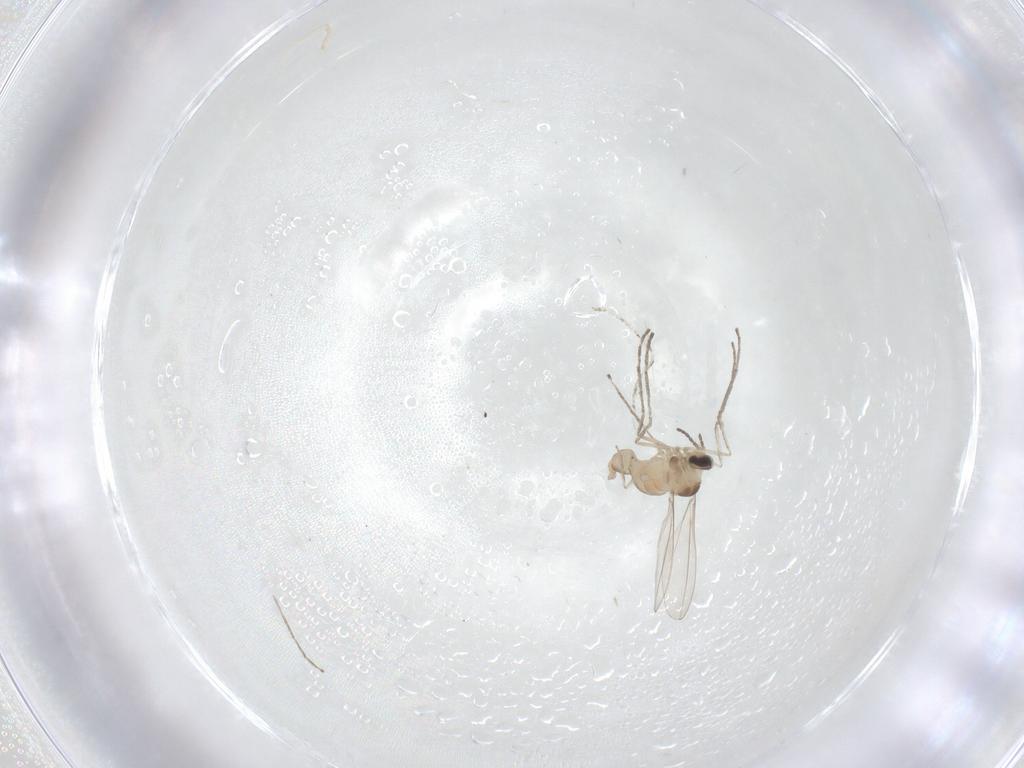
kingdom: Animalia
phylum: Arthropoda
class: Insecta
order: Diptera
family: Cecidomyiidae
